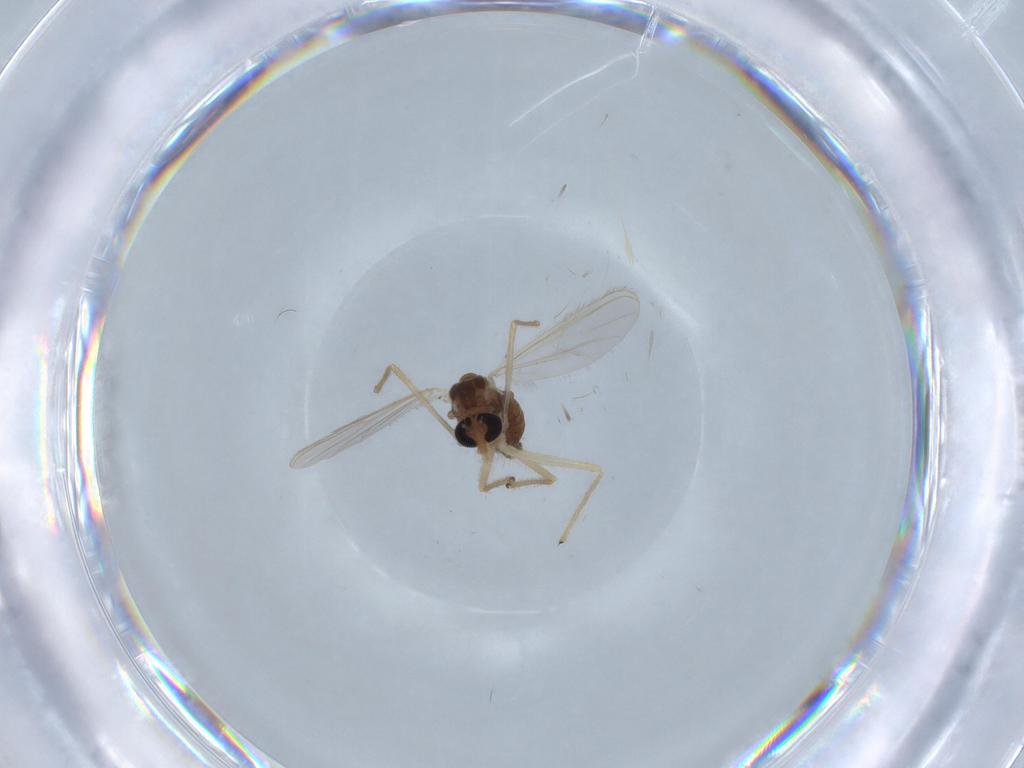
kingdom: Animalia
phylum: Arthropoda
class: Insecta
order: Diptera
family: Chironomidae
